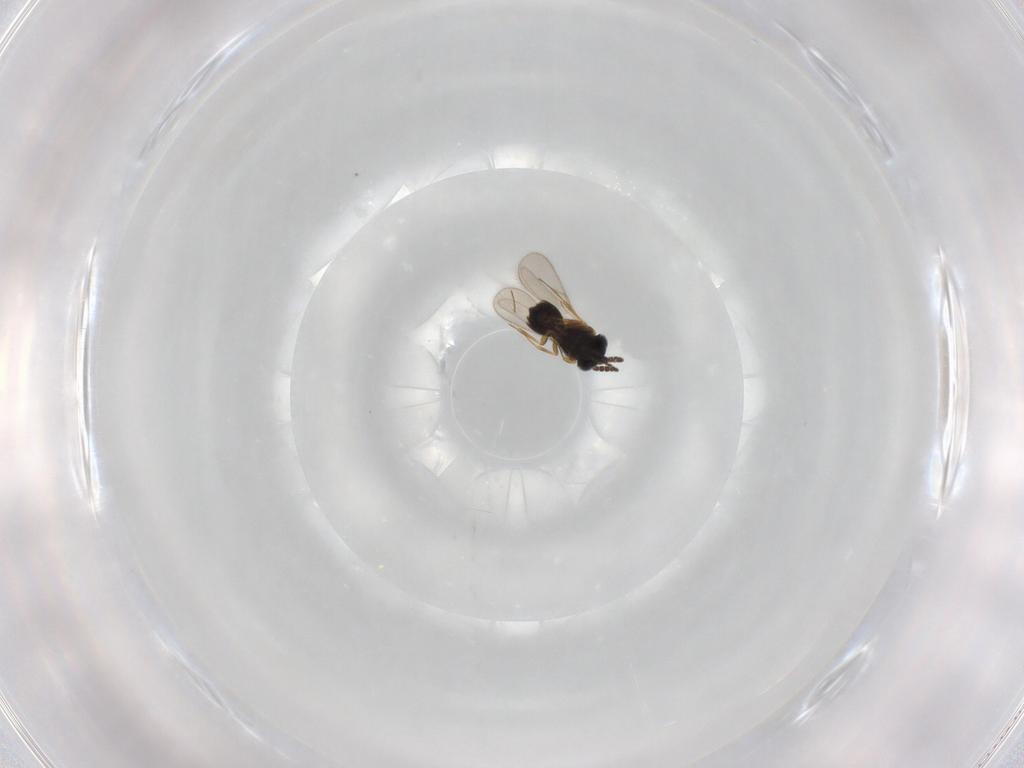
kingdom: Animalia
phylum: Arthropoda
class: Insecta
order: Hymenoptera
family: Scelionidae
